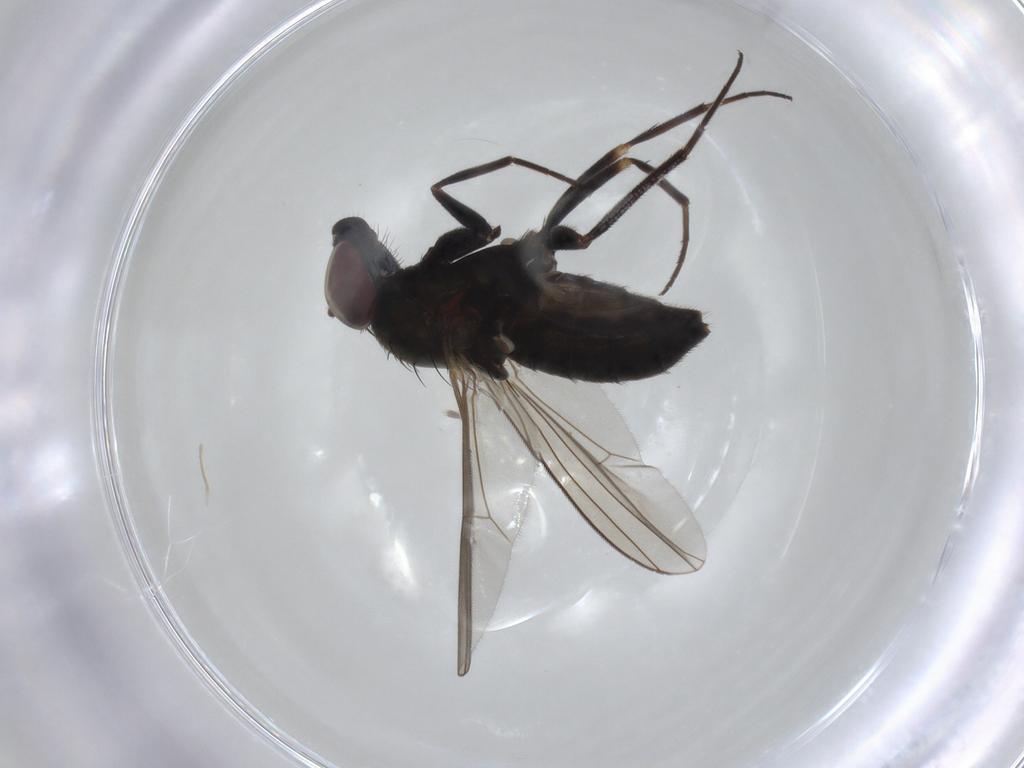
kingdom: Animalia
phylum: Arthropoda
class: Insecta
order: Diptera
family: Dolichopodidae
